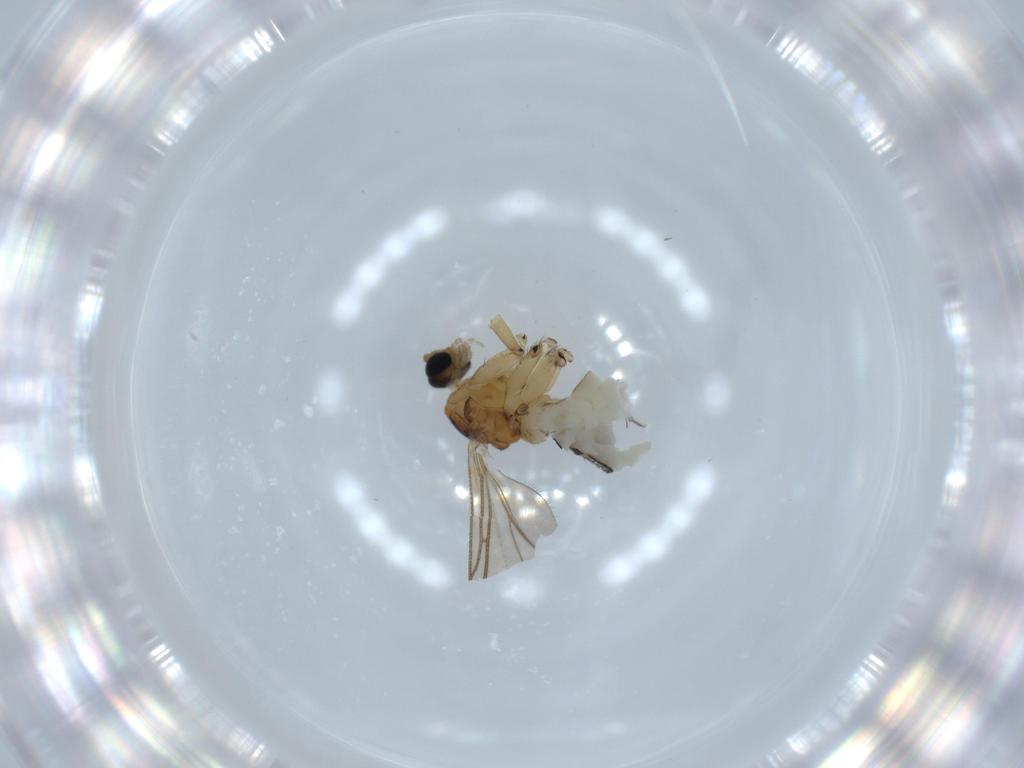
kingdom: Animalia
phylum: Arthropoda
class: Insecta
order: Diptera
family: Sciaridae
